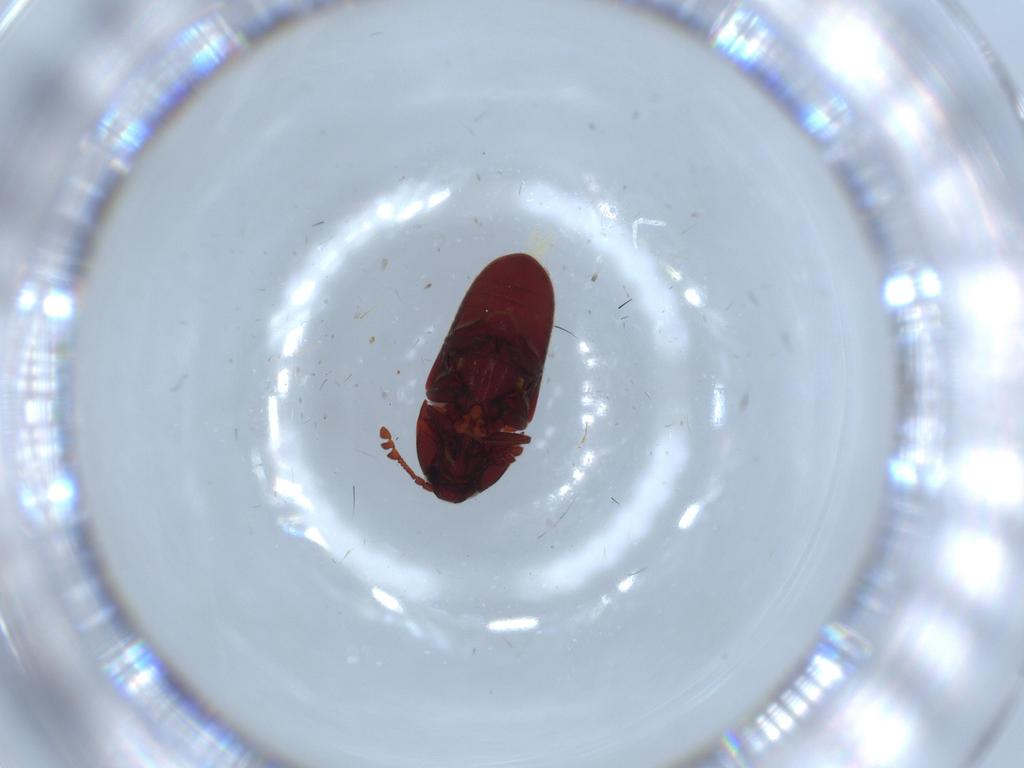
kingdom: Animalia
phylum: Arthropoda
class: Insecta
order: Coleoptera
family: Throscidae
